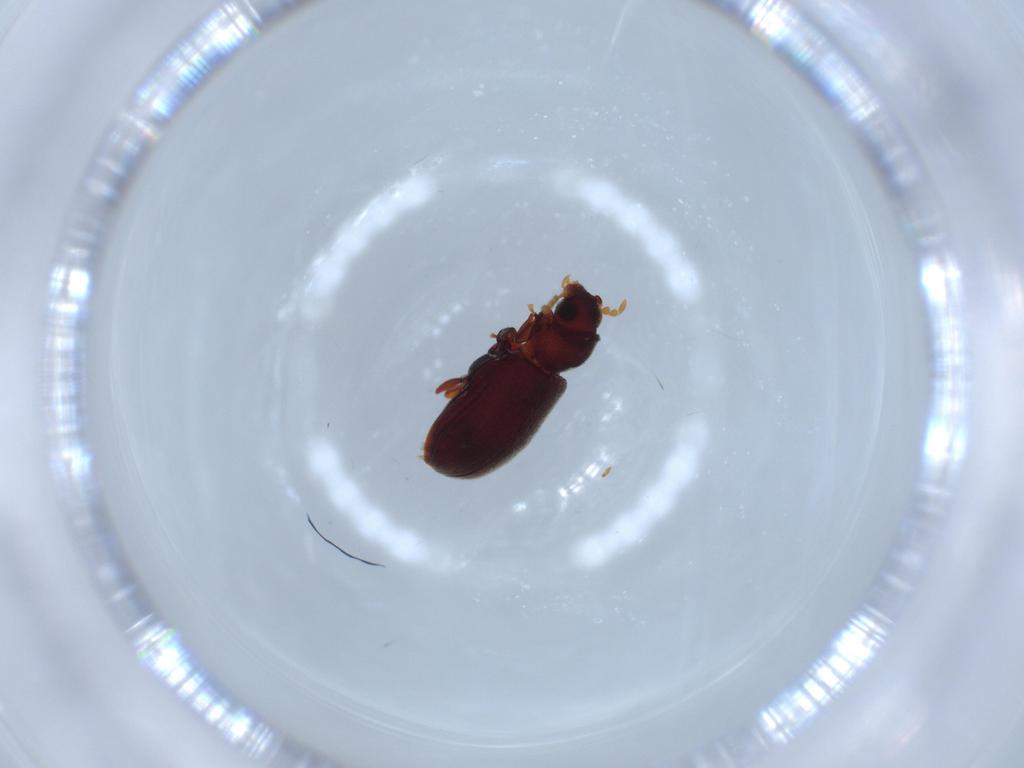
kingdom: Animalia
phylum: Arthropoda
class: Insecta
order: Coleoptera
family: Anobiidae
